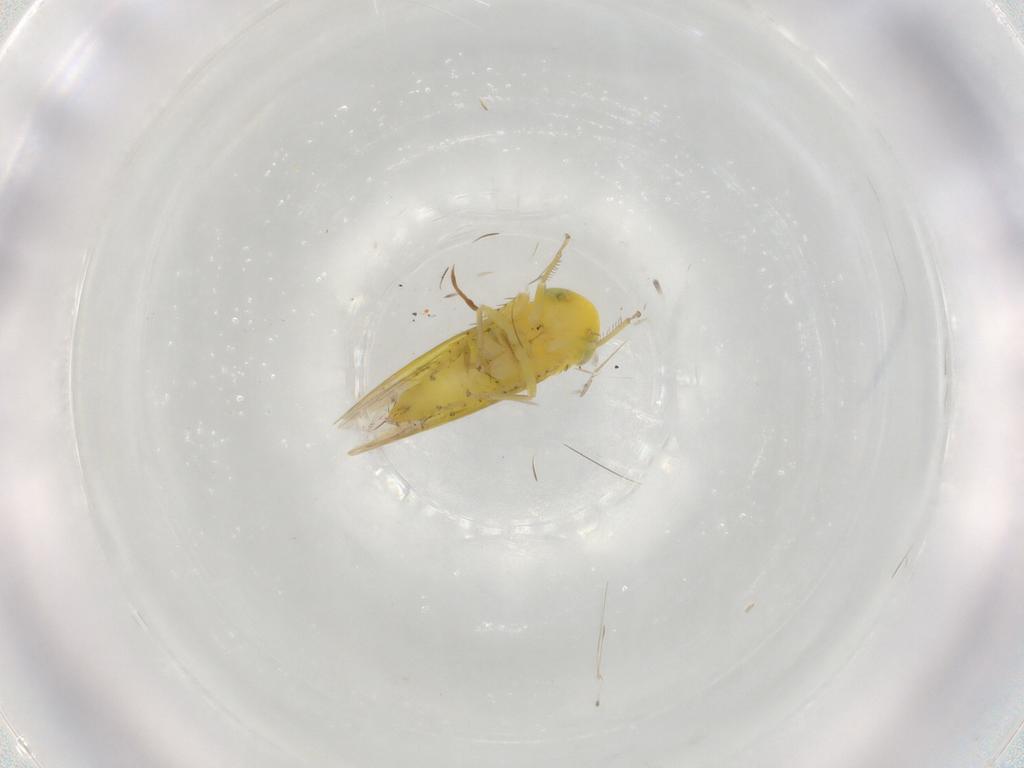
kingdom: Animalia
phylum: Arthropoda
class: Insecta
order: Hemiptera
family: Cicadellidae
